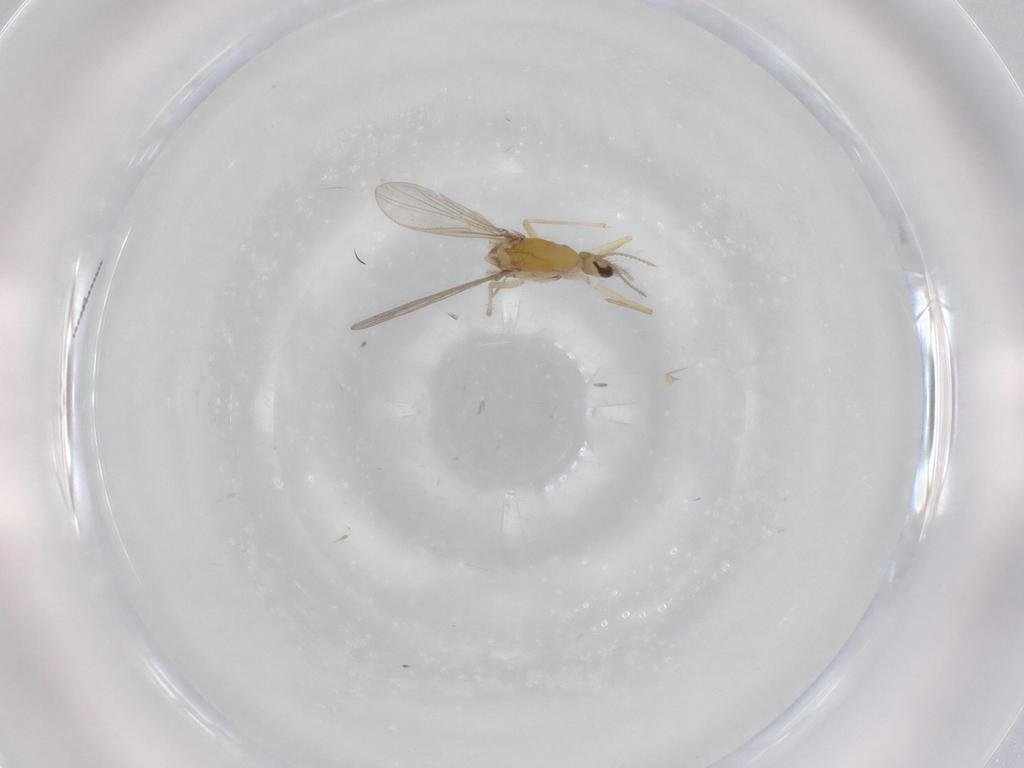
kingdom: Animalia
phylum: Arthropoda
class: Insecta
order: Diptera
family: Chironomidae
